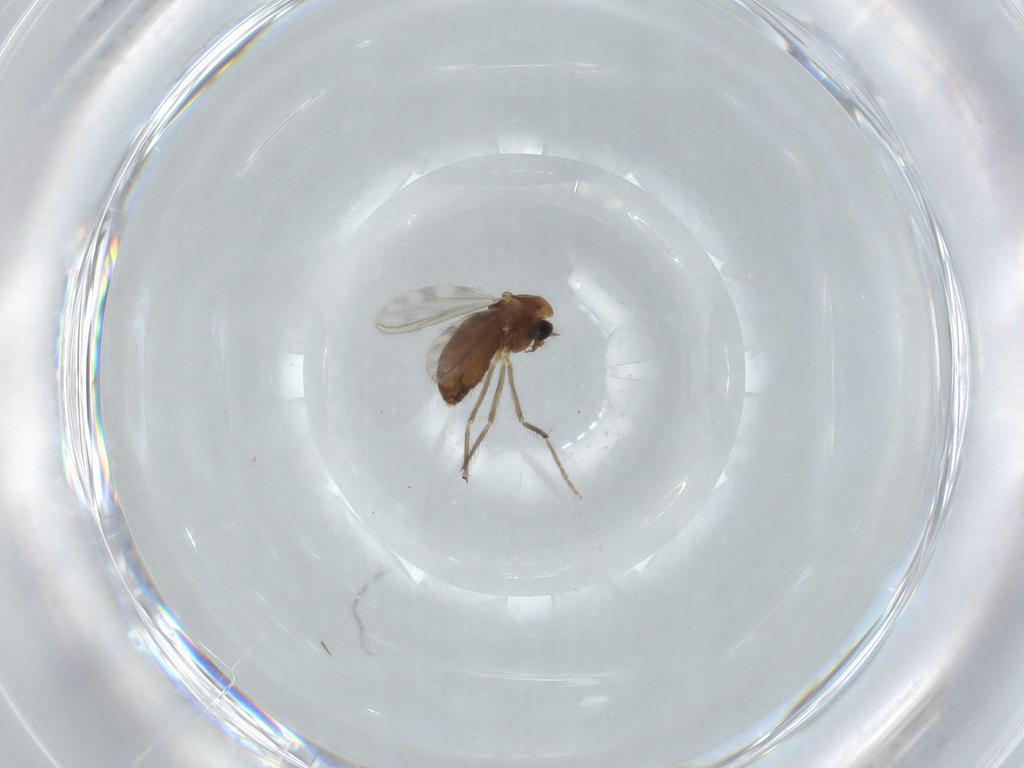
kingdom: Animalia
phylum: Arthropoda
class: Insecta
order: Diptera
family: Chironomidae
